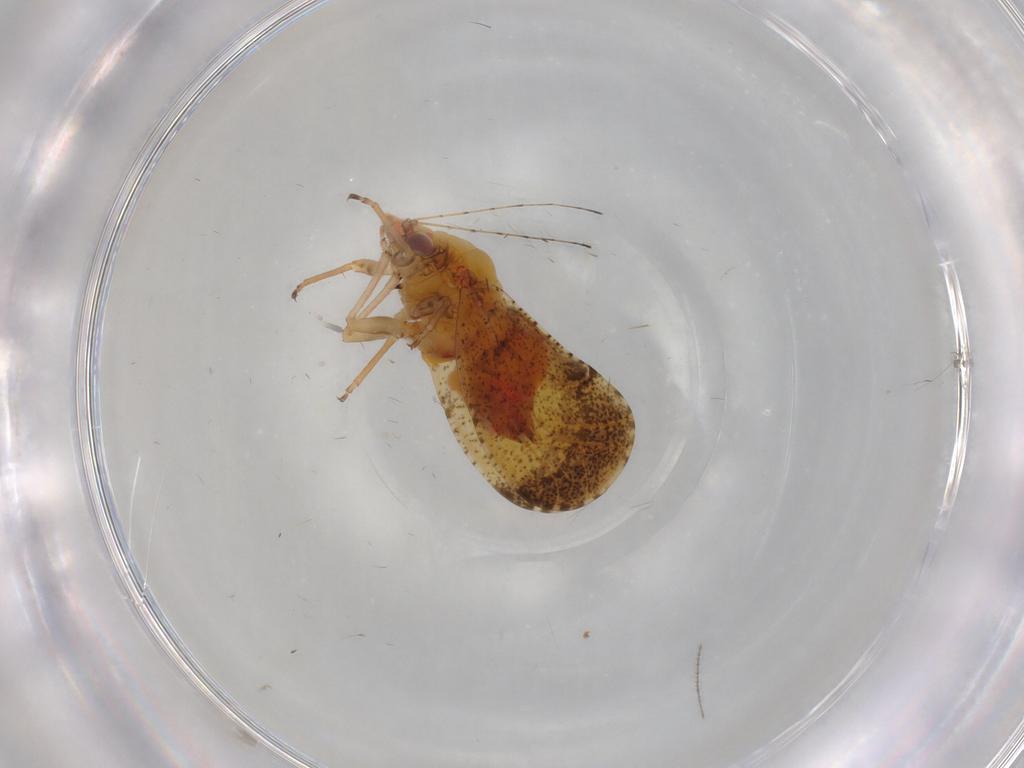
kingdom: Animalia
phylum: Arthropoda
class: Insecta
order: Hemiptera
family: Psyllidae
